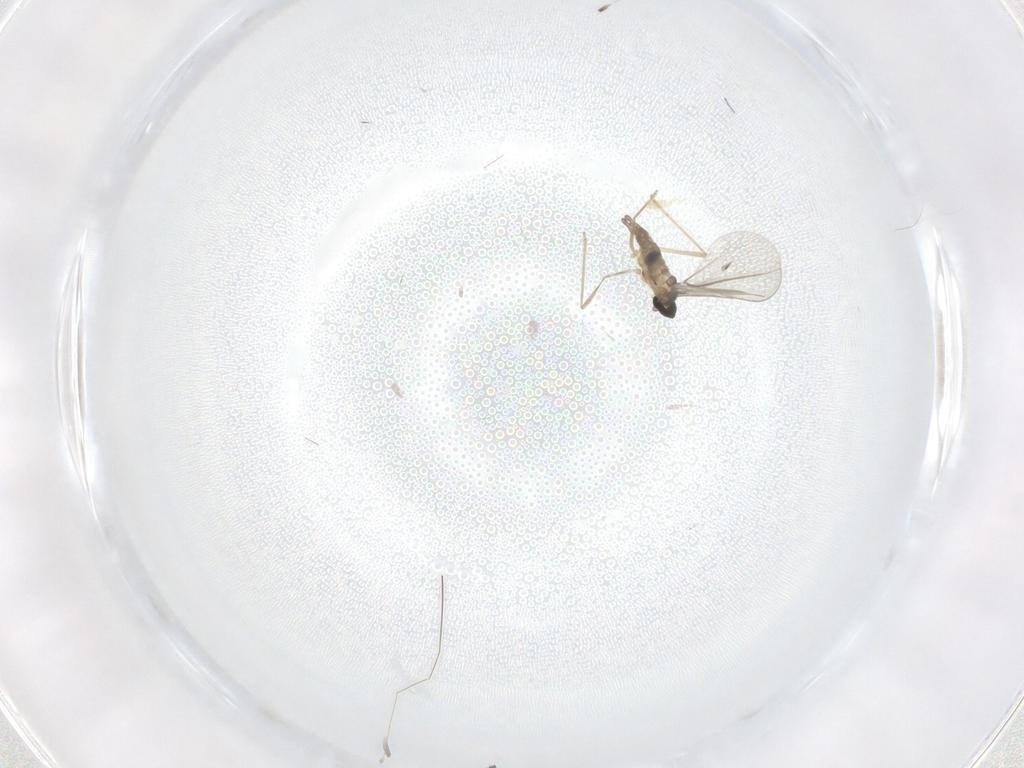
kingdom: Animalia
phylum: Arthropoda
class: Insecta
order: Diptera
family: Cecidomyiidae
